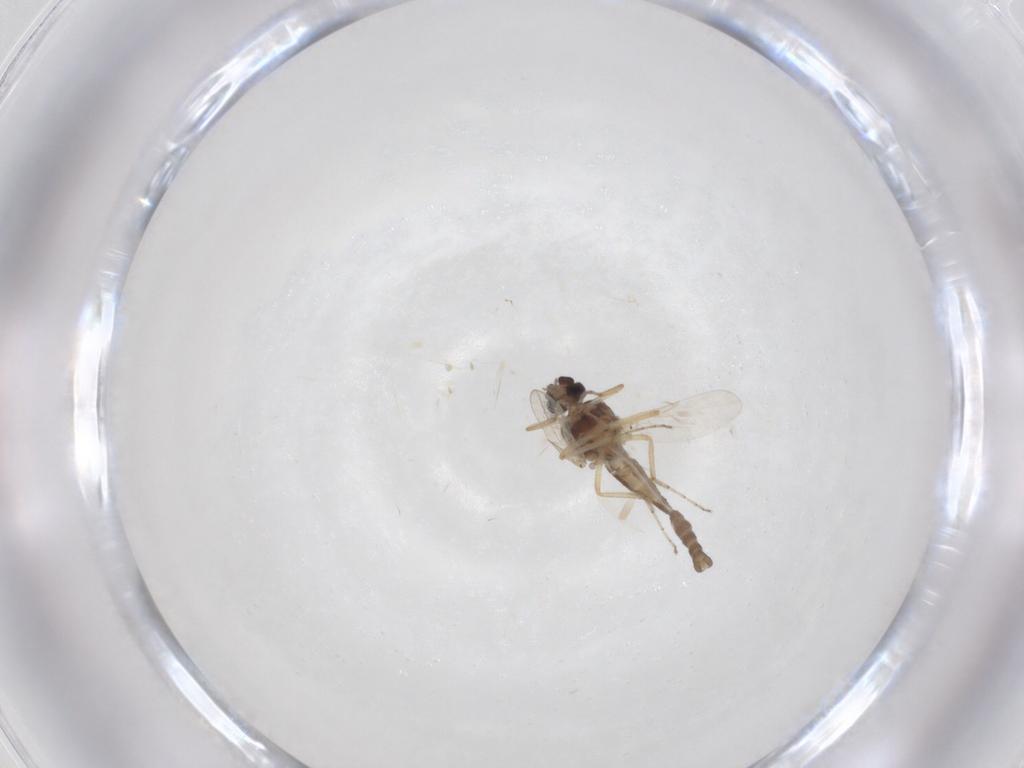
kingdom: Animalia
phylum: Arthropoda
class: Insecta
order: Diptera
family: Ceratopogonidae
